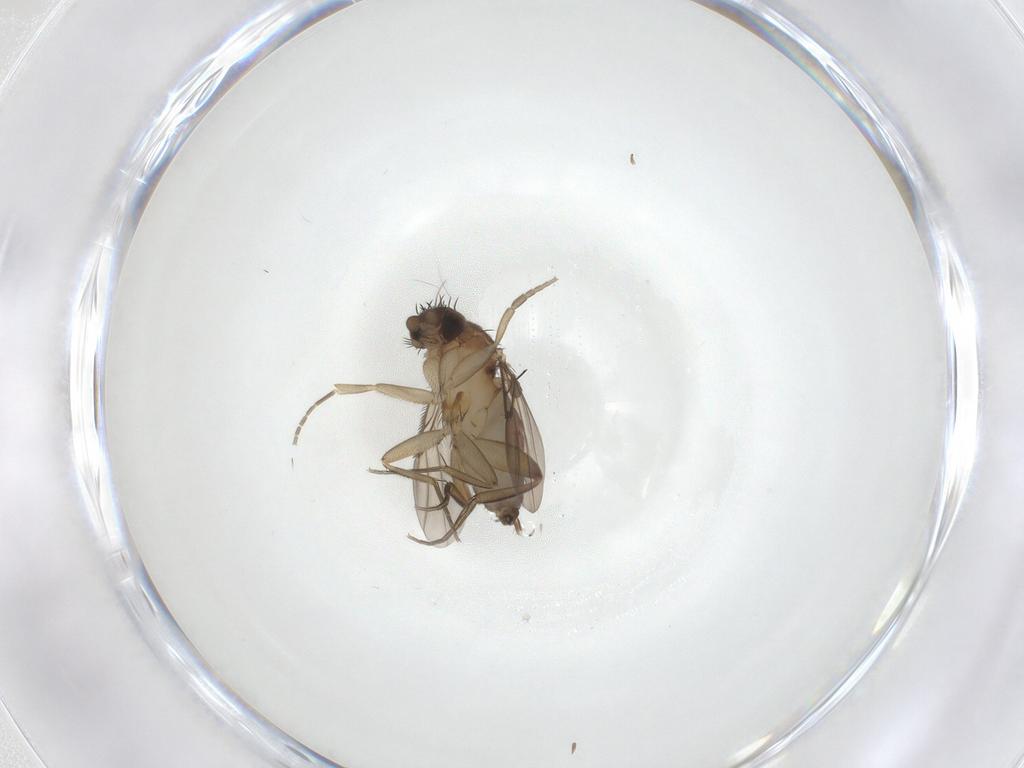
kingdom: Animalia
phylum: Arthropoda
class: Insecta
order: Diptera
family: Phoridae
